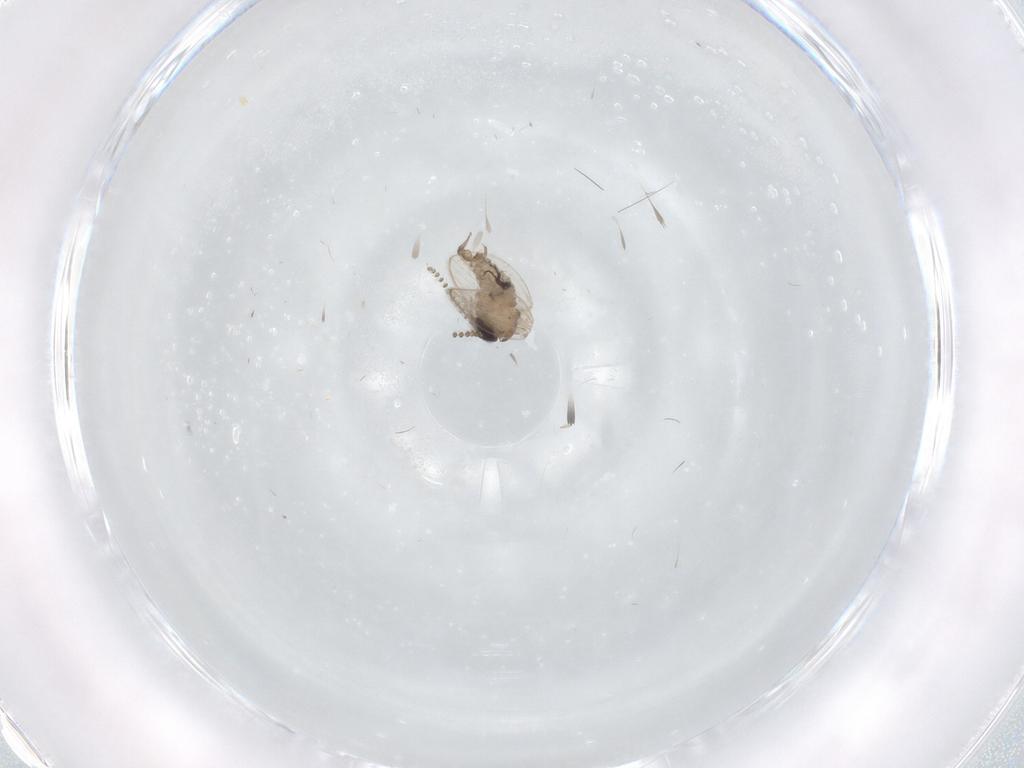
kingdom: Animalia
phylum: Arthropoda
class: Insecta
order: Diptera
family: Psychodidae
